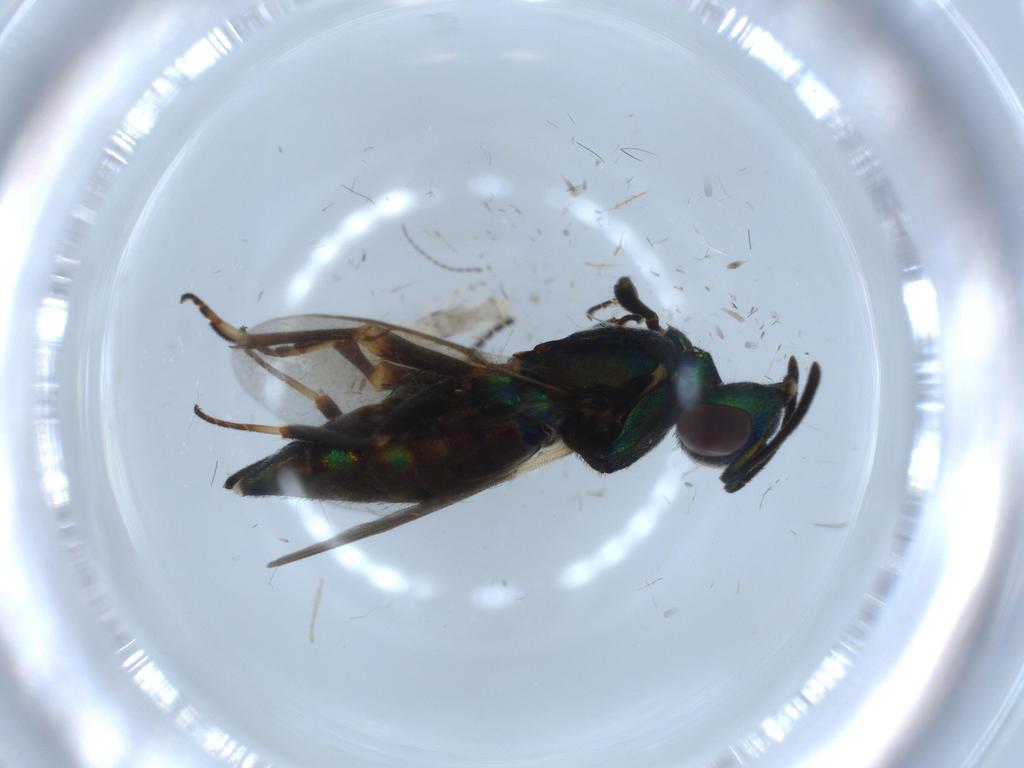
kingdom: Animalia
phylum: Arthropoda
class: Insecta
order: Hymenoptera
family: Eupelmidae
